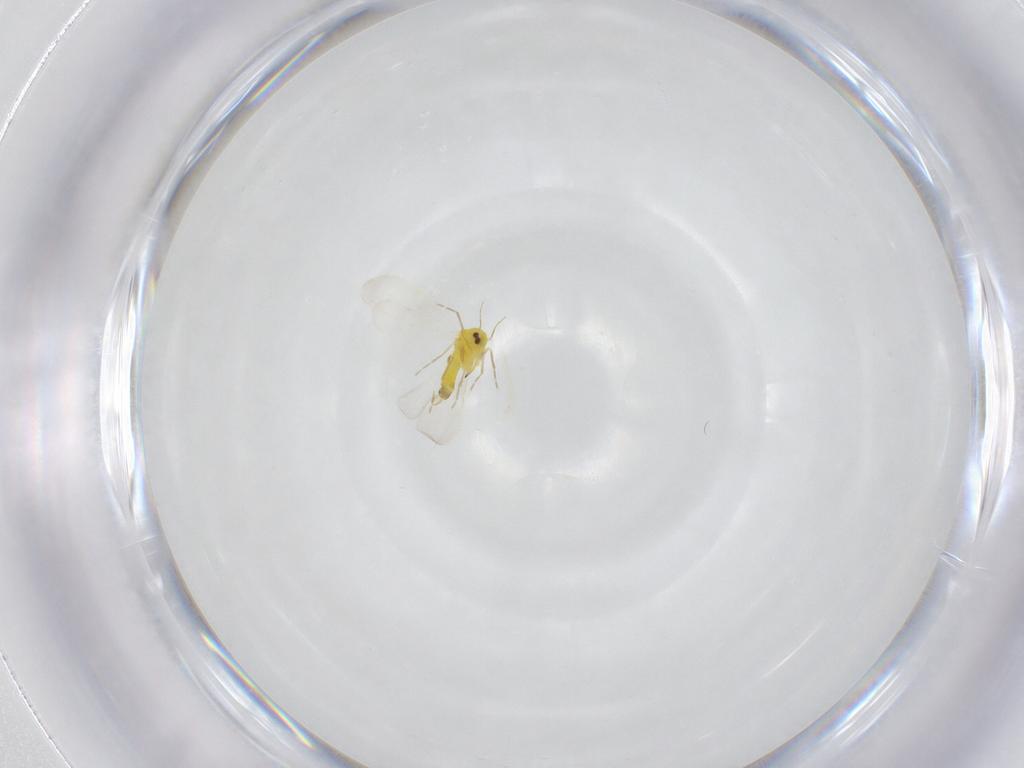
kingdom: Animalia
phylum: Arthropoda
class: Insecta
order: Hemiptera
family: Aleyrodidae
